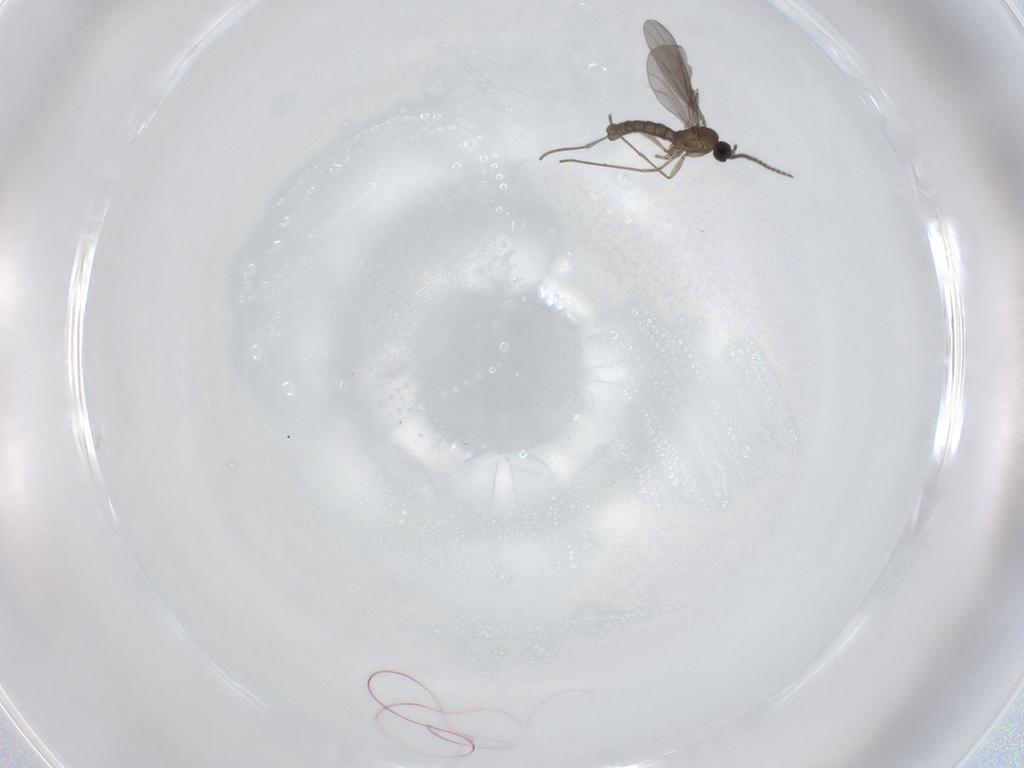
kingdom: Animalia
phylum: Arthropoda
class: Insecta
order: Diptera
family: Sciaridae
